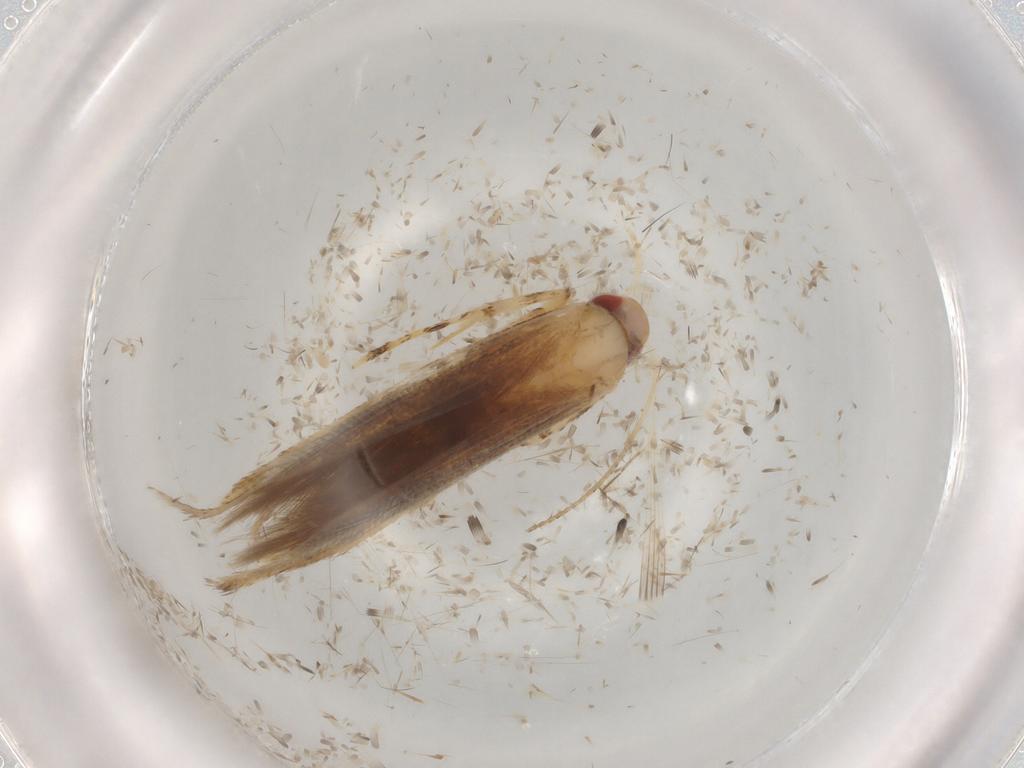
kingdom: Animalia
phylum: Arthropoda
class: Insecta
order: Lepidoptera
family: Cosmopterigidae
